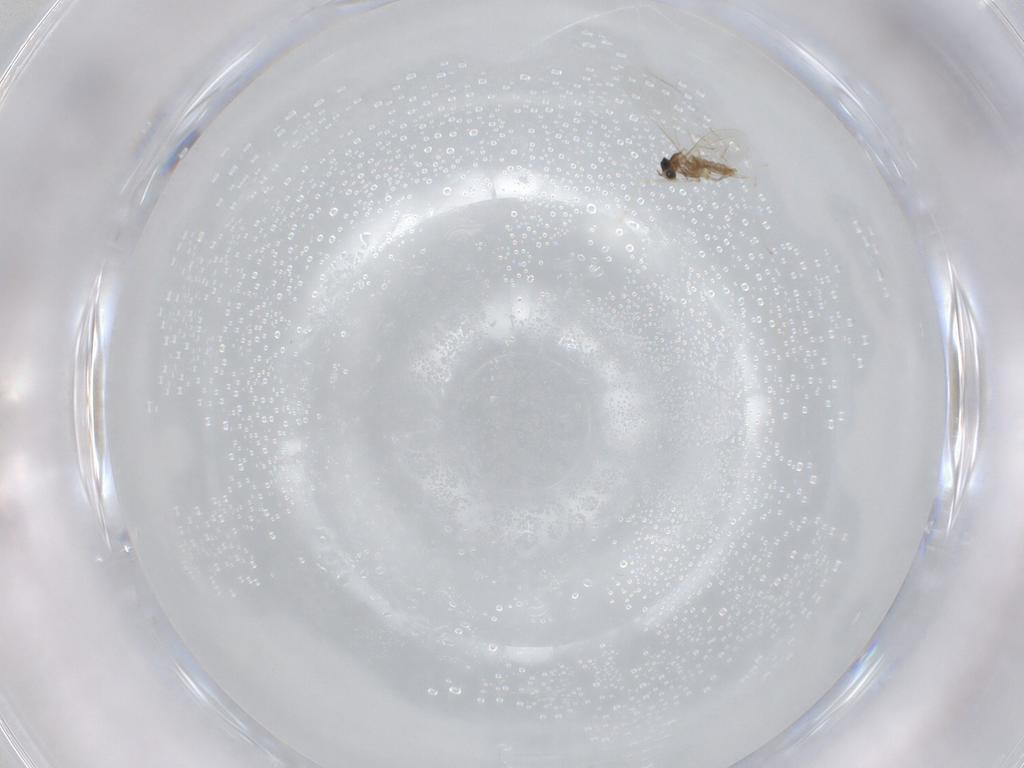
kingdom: Animalia
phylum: Arthropoda
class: Insecta
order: Diptera
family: Cecidomyiidae
